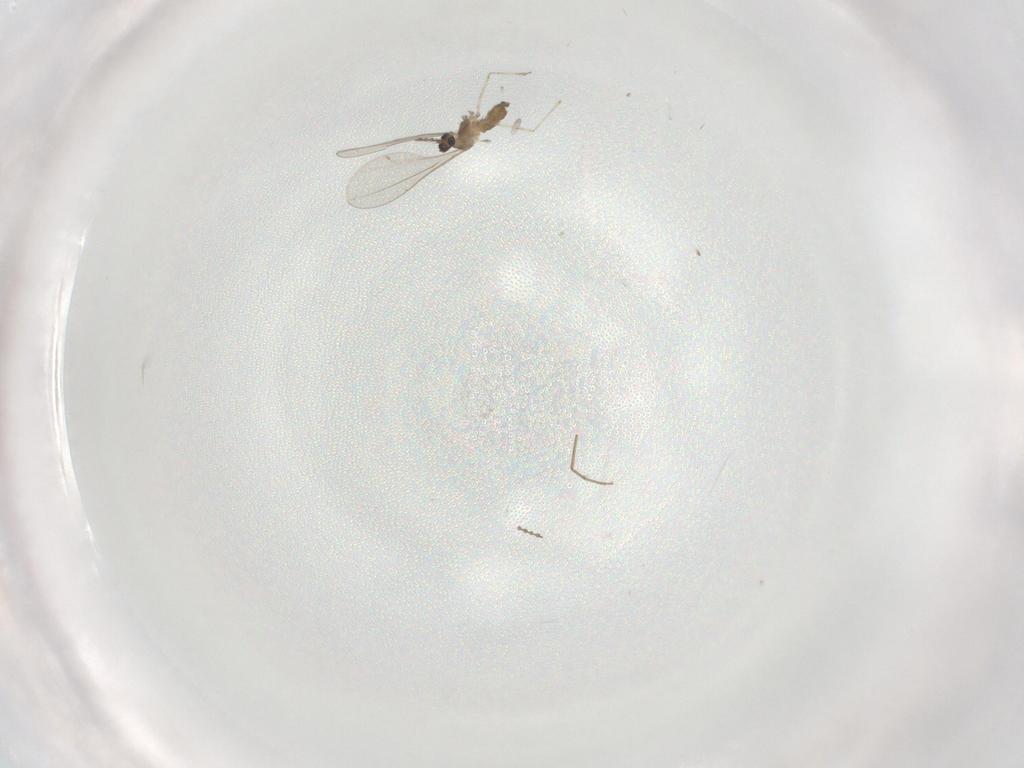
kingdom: Animalia
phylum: Arthropoda
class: Insecta
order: Diptera
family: Cecidomyiidae
